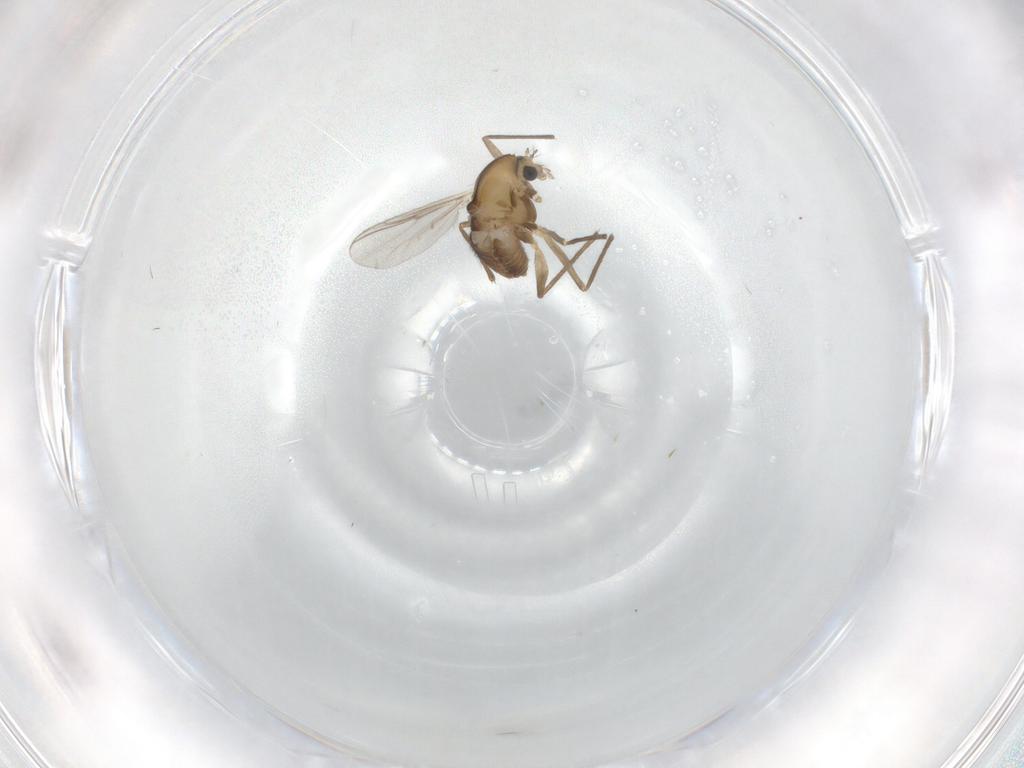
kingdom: Animalia
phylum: Arthropoda
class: Insecta
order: Diptera
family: Chironomidae
